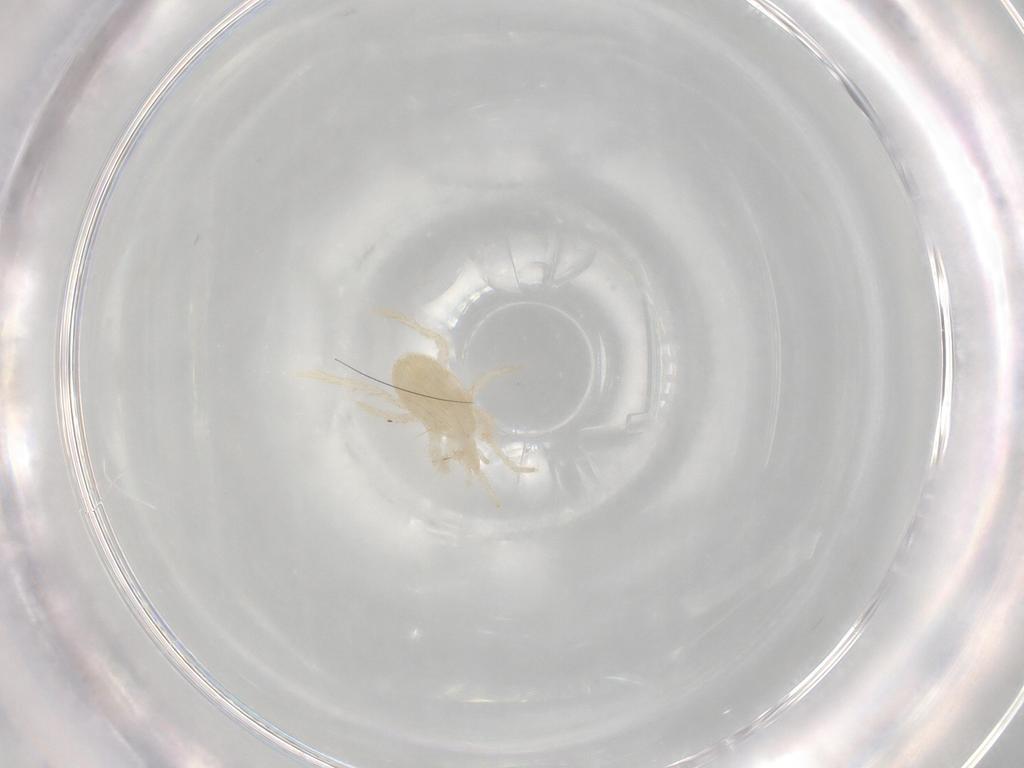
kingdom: Animalia
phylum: Arthropoda
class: Arachnida
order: Mesostigmata
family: Parasitidae
